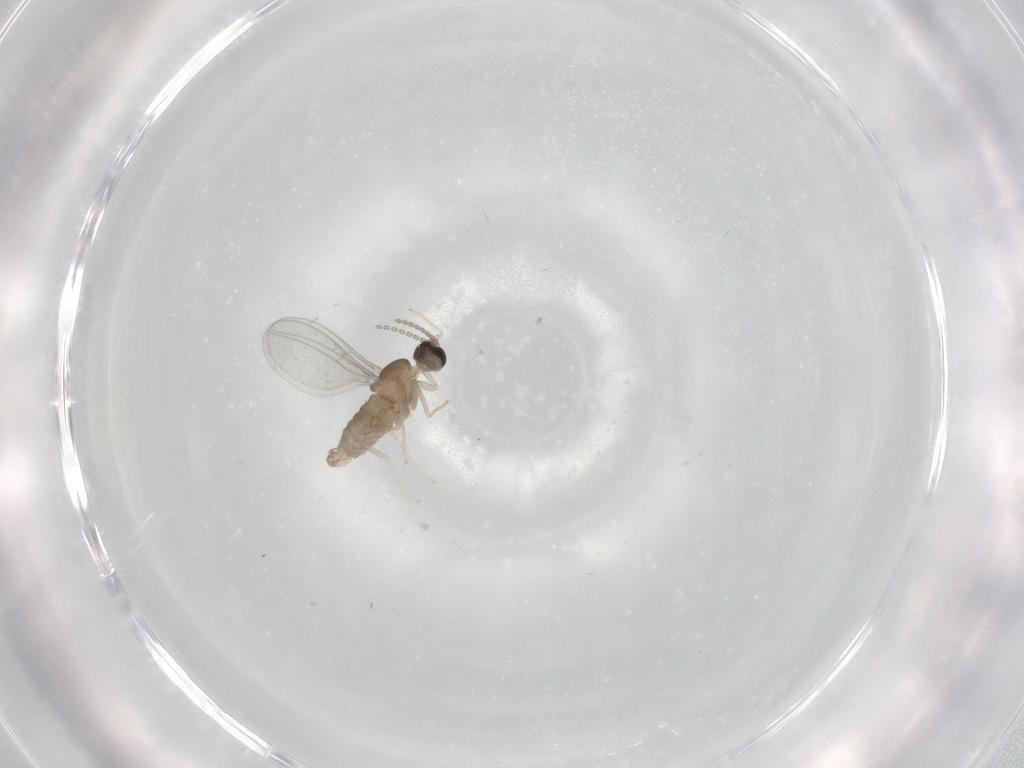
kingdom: Animalia
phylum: Arthropoda
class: Insecta
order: Diptera
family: Cecidomyiidae
